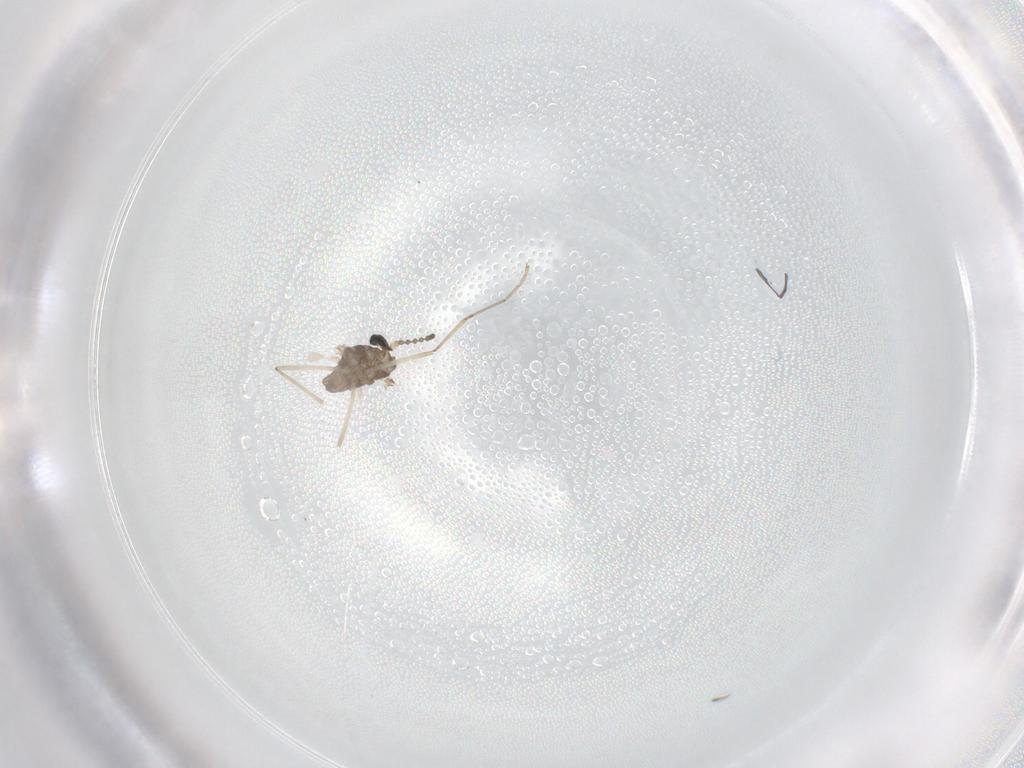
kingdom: Animalia
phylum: Arthropoda
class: Insecta
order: Diptera
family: Cecidomyiidae
